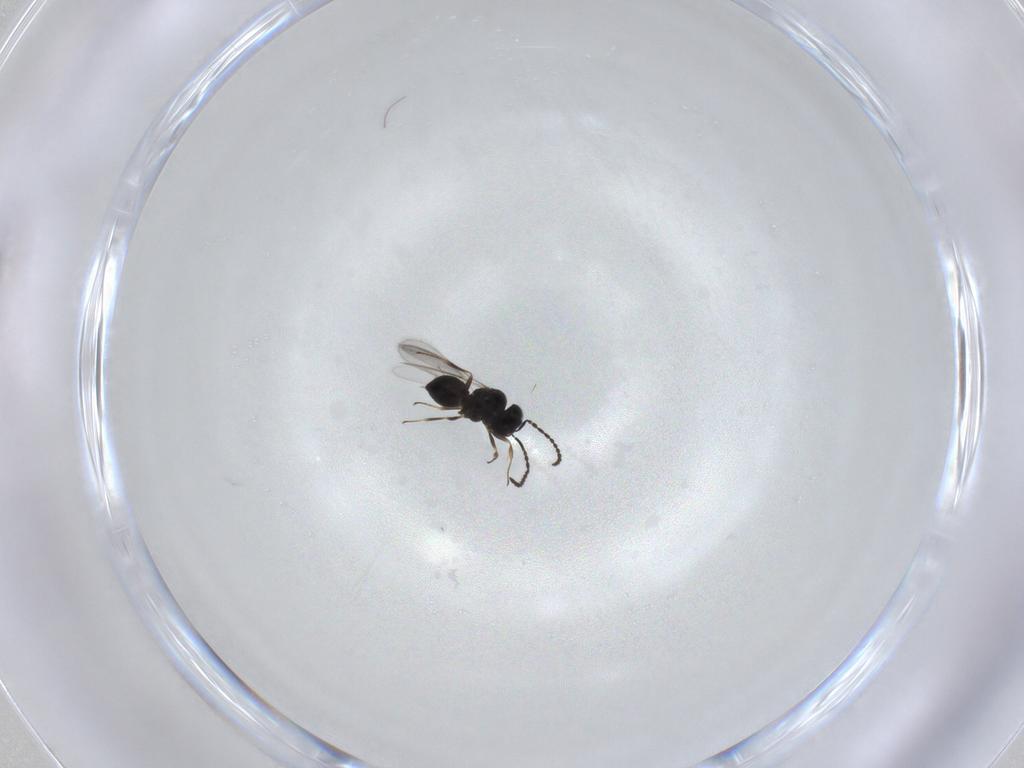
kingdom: Animalia
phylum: Arthropoda
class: Insecta
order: Hymenoptera
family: Scelionidae
